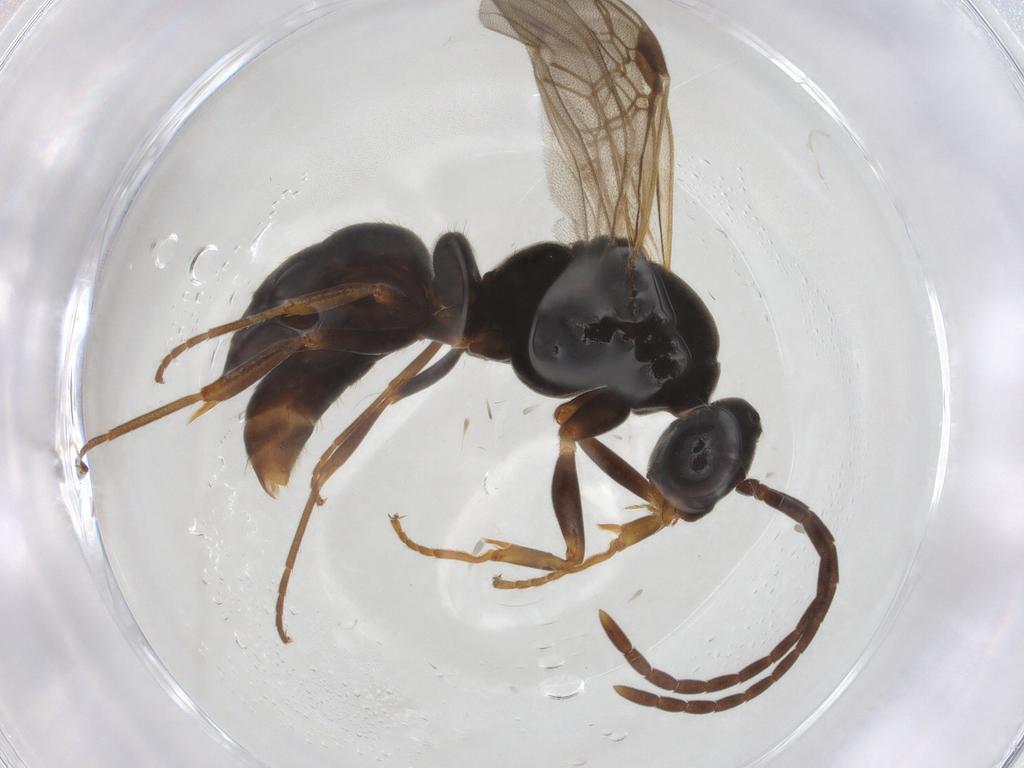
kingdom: Animalia
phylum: Arthropoda
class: Insecta
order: Hymenoptera
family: Formicidae
